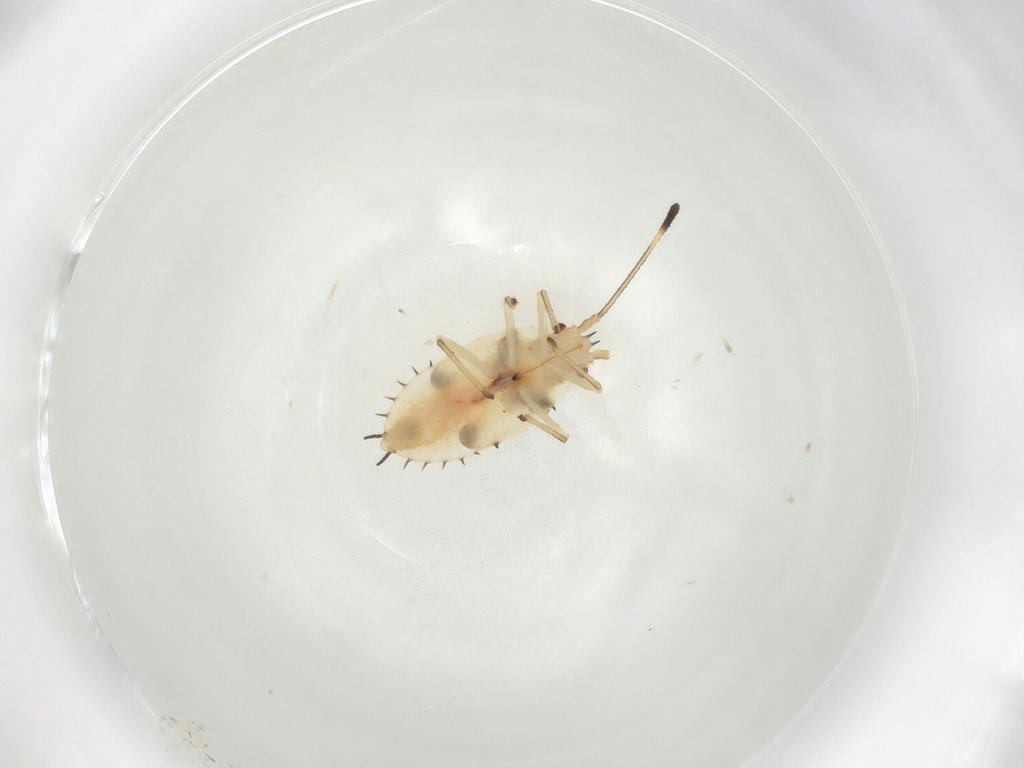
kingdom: Animalia
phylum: Arthropoda
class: Insecta
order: Hemiptera
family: Tingidae
